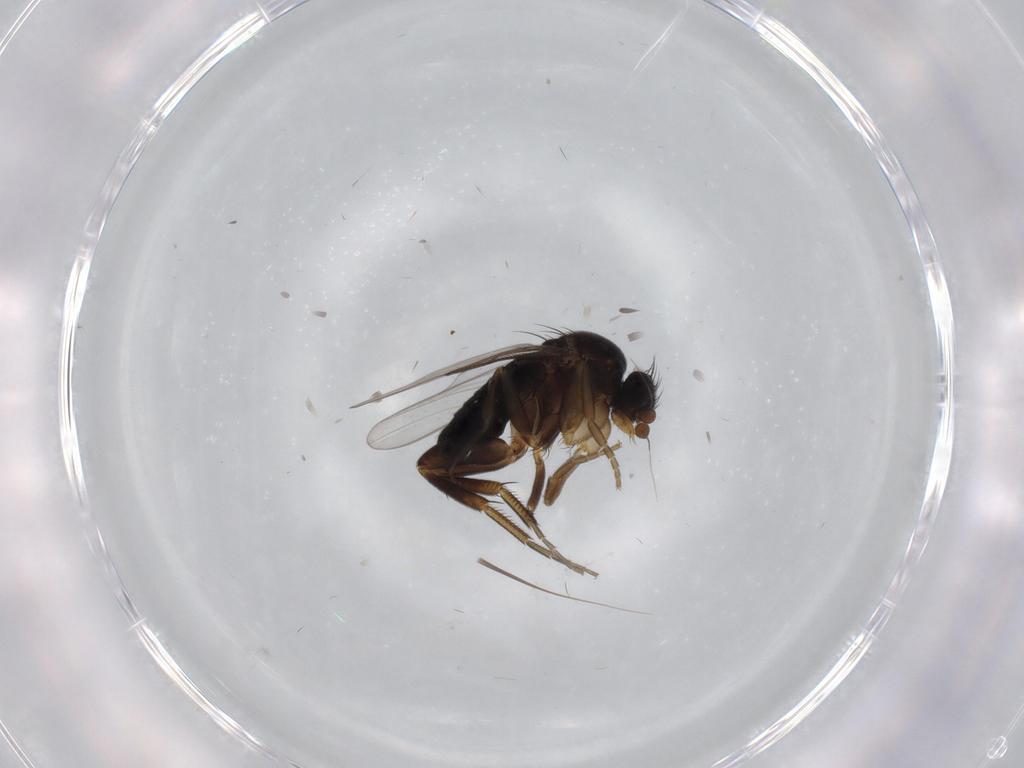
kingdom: Animalia
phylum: Arthropoda
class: Insecta
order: Diptera
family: Phoridae
